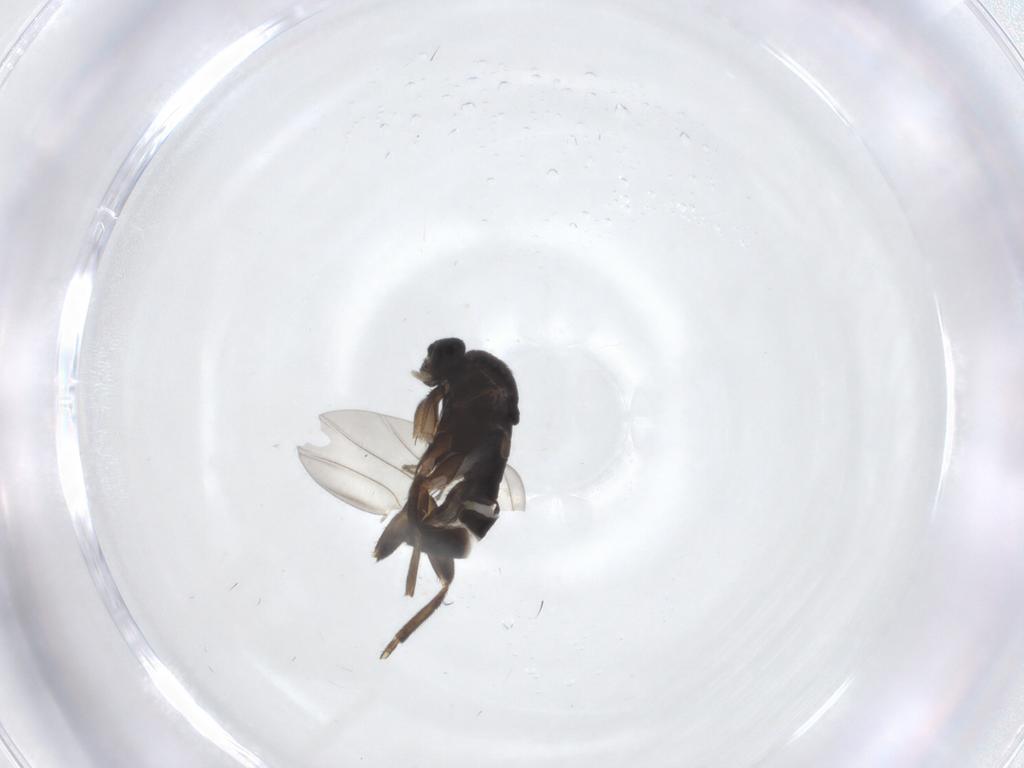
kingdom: Animalia
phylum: Arthropoda
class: Insecta
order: Diptera
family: Phoridae
